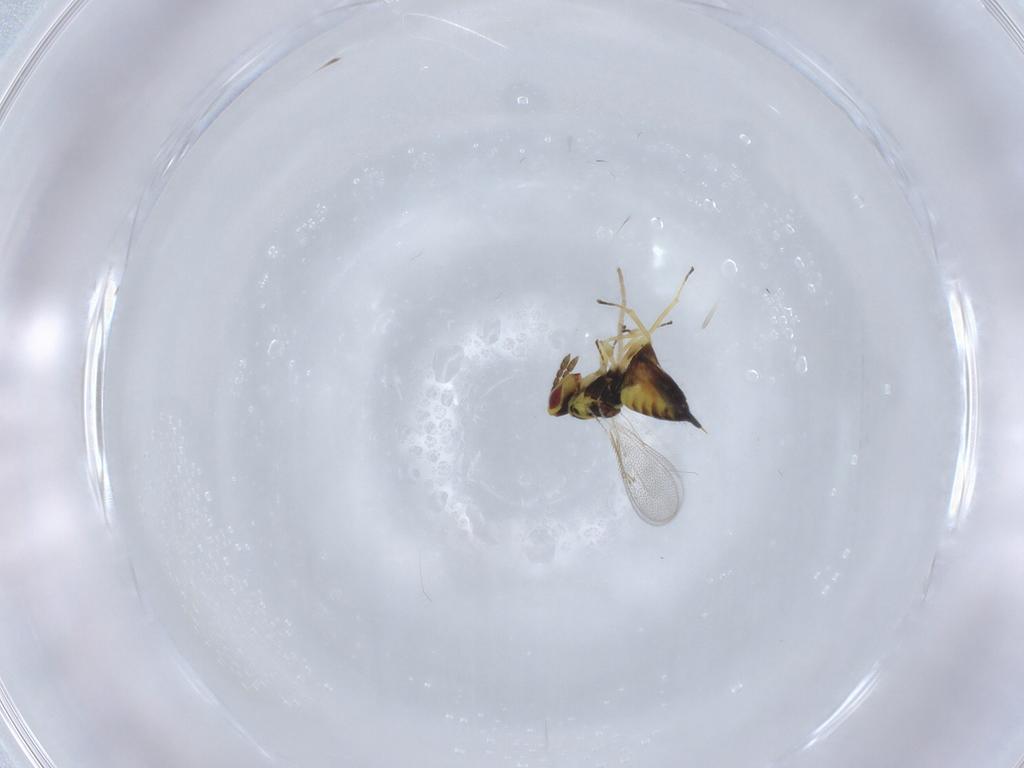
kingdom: Animalia
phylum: Arthropoda
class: Insecta
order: Hymenoptera
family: Eulophidae
